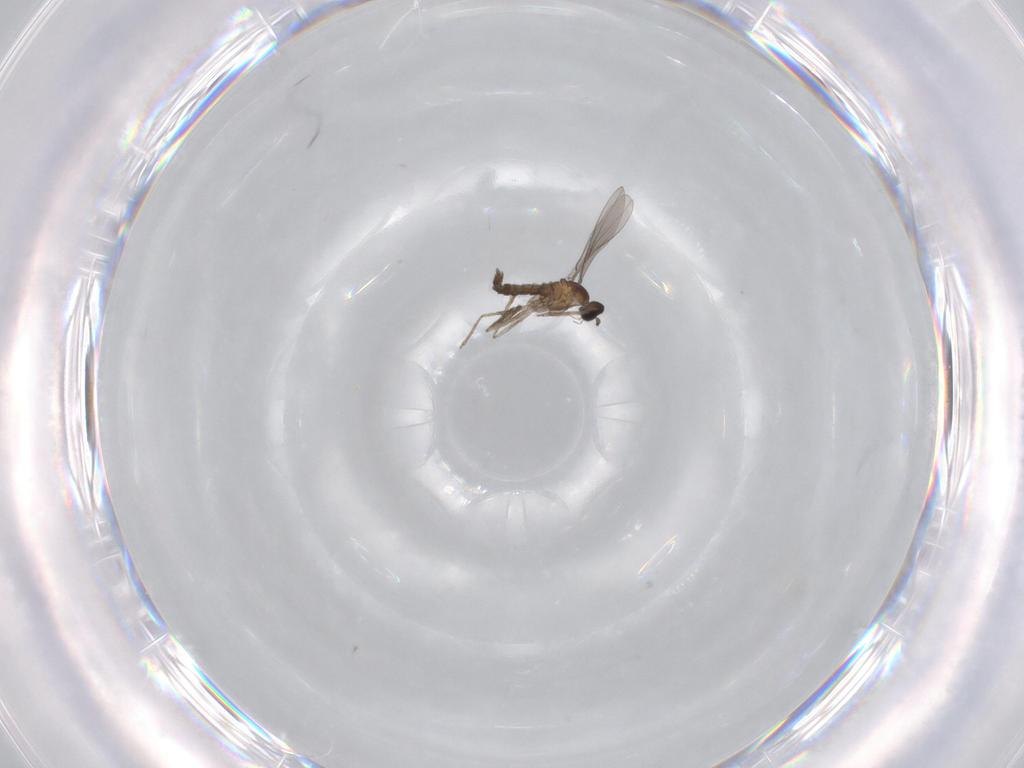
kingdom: Animalia
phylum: Arthropoda
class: Insecta
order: Diptera
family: Cecidomyiidae
